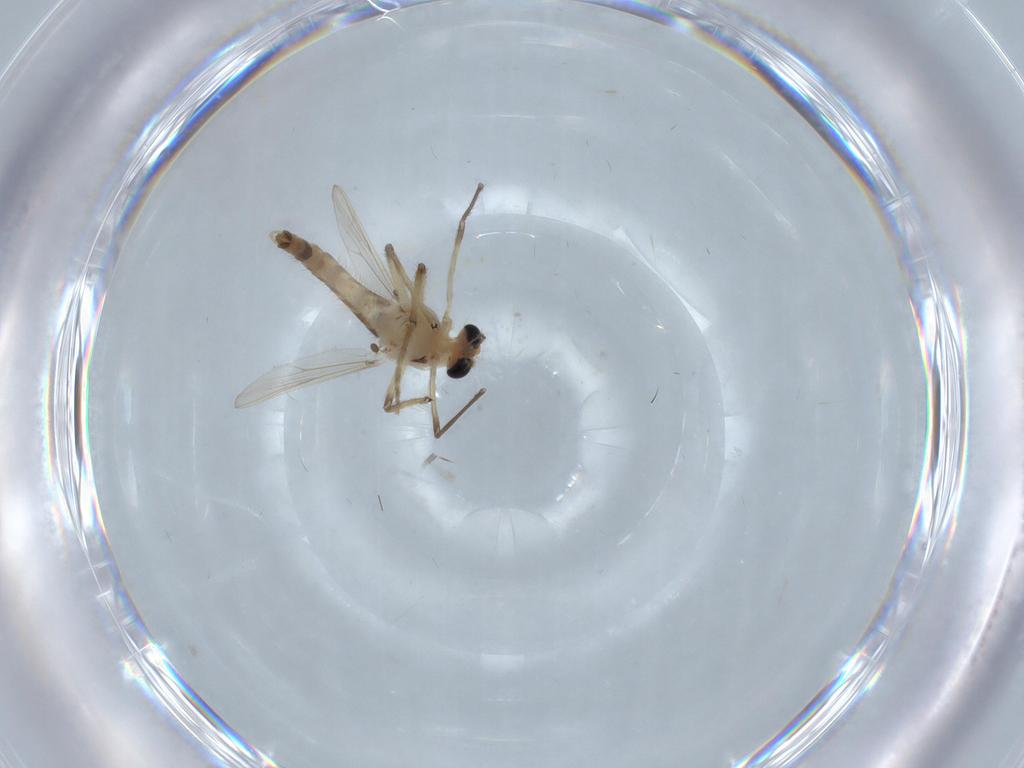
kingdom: Animalia
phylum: Arthropoda
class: Insecta
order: Diptera
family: Chironomidae
